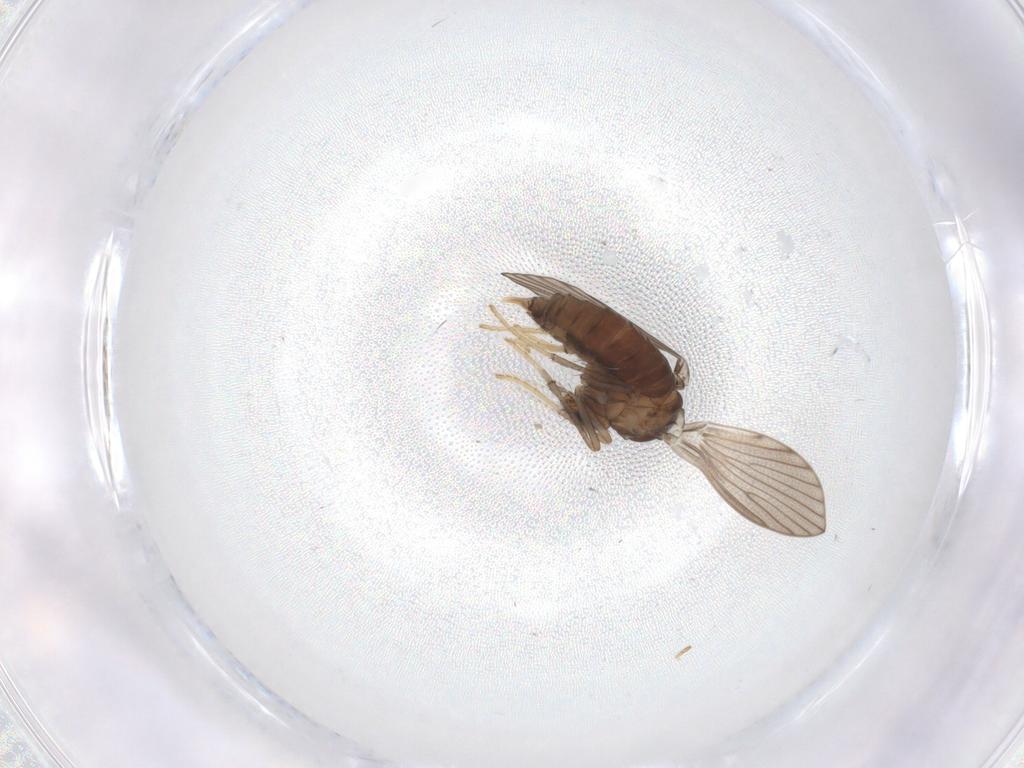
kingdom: Animalia
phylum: Arthropoda
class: Insecta
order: Diptera
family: Psychodidae
